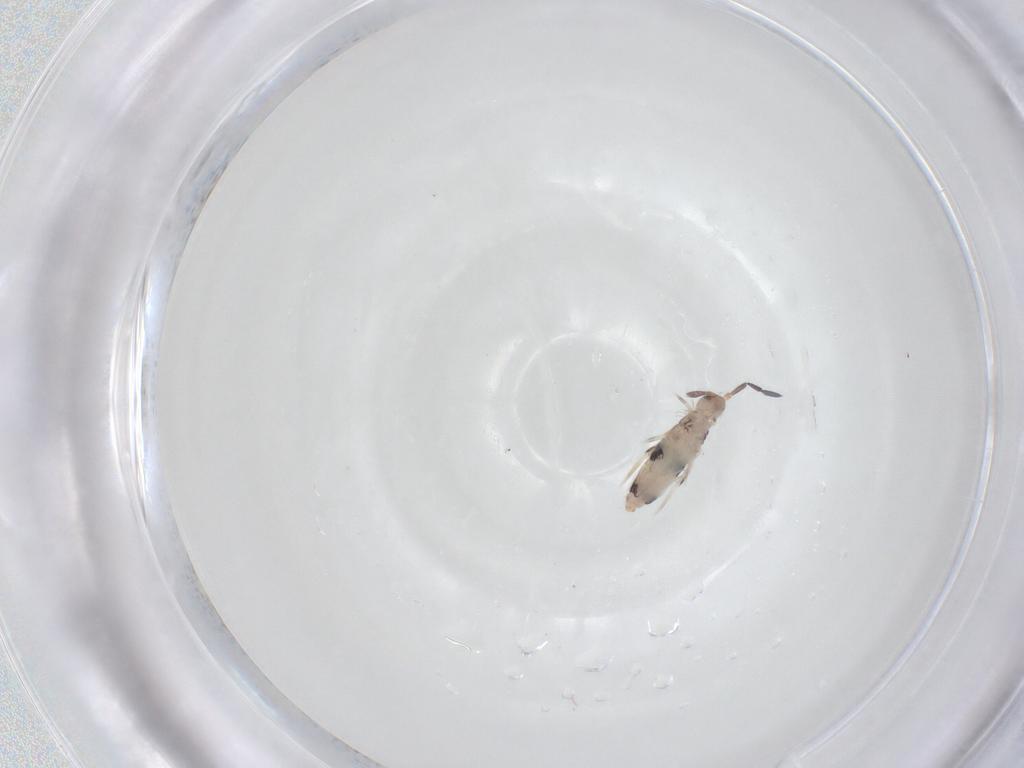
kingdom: Animalia
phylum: Arthropoda
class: Collembola
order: Entomobryomorpha
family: Entomobryidae
